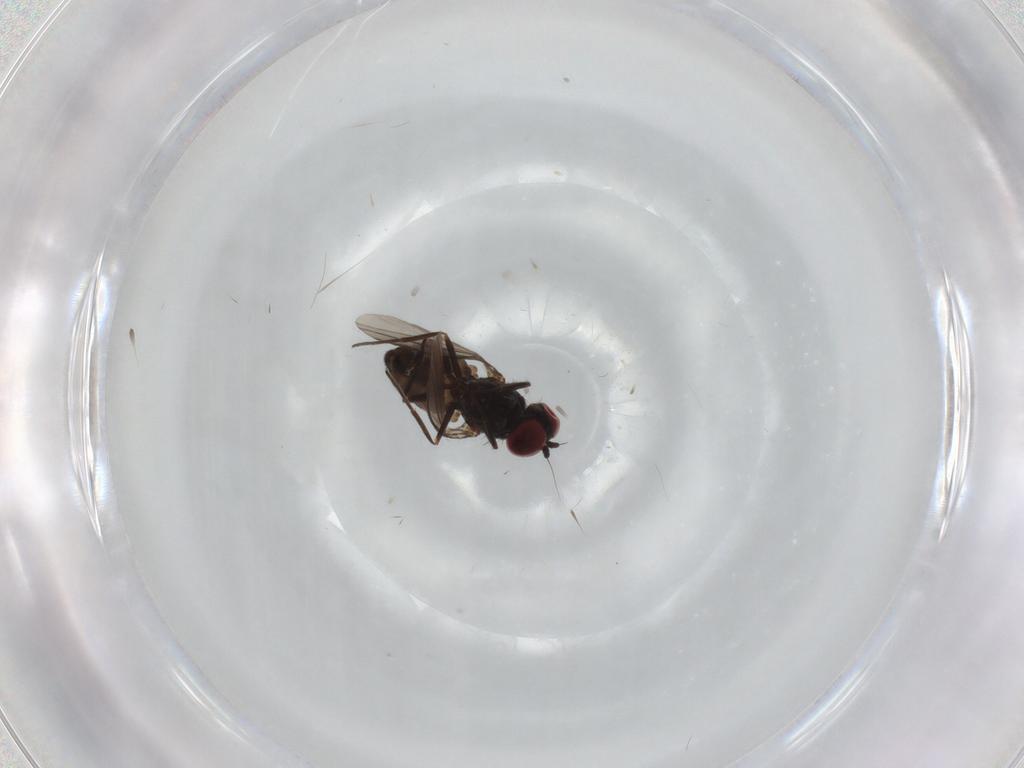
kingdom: Animalia
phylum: Arthropoda
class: Insecta
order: Diptera
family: Dolichopodidae
